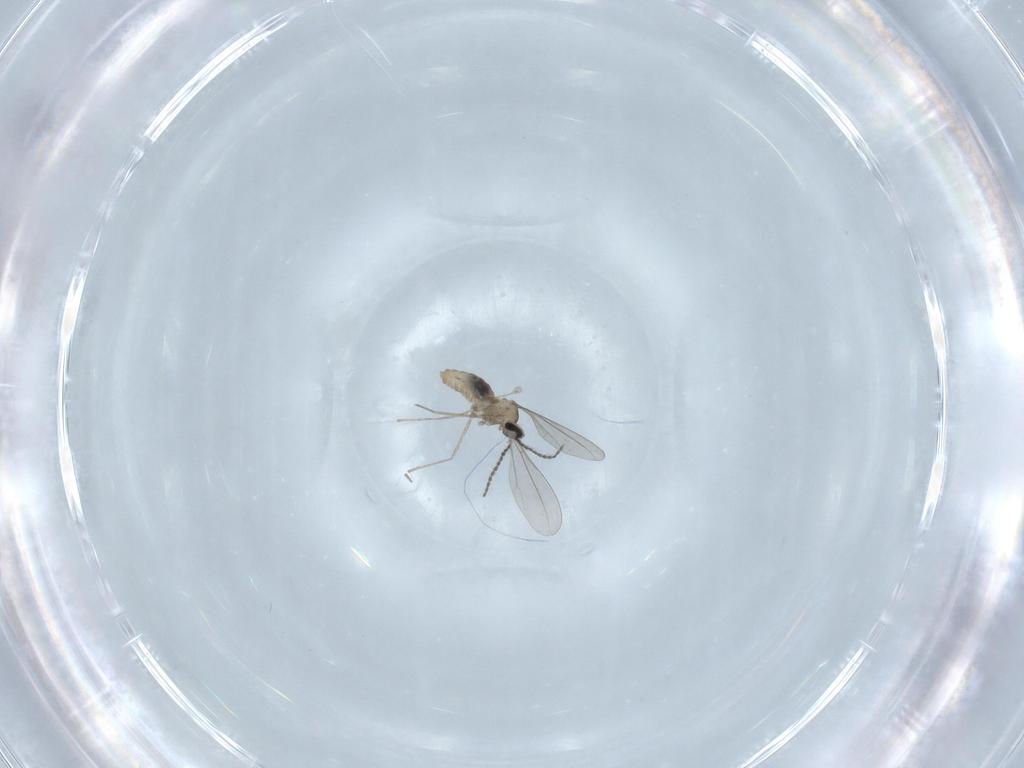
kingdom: Animalia
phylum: Arthropoda
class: Insecta
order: Diptera
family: Cecidomyiidae
